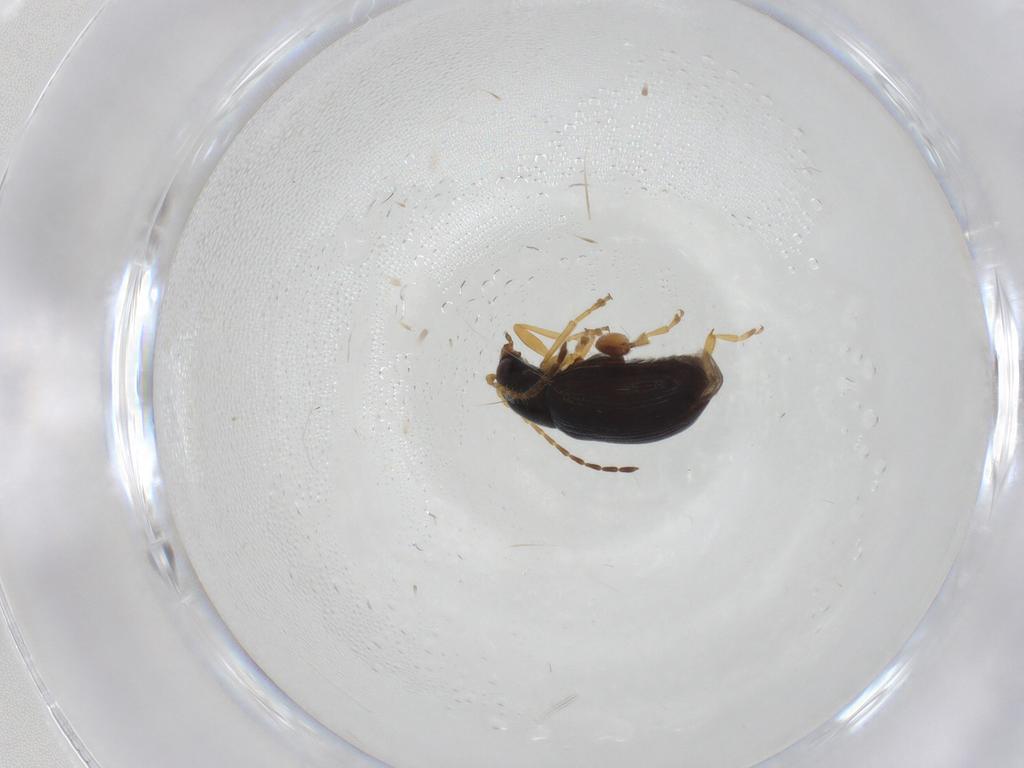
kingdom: Animalia
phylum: Arthropoda
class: Insecta
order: Coleoptera
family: Chrysomelidae
